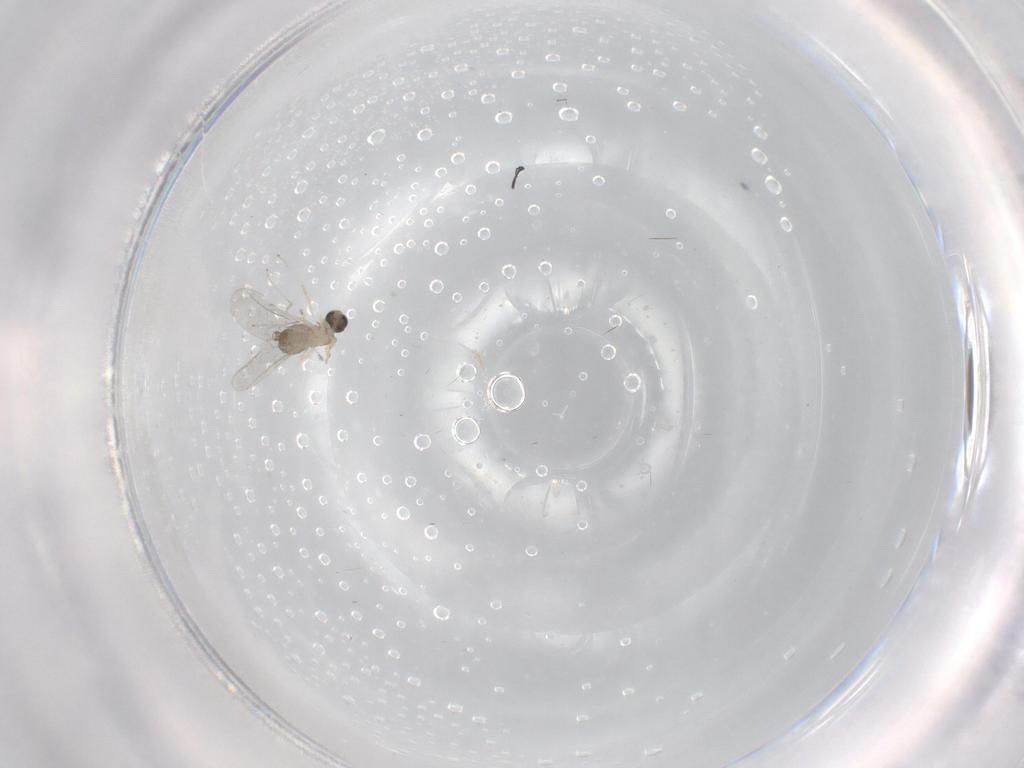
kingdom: Animalia
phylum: Arthropoda
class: Insecta
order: Diptera
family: Cecidomyiidae
